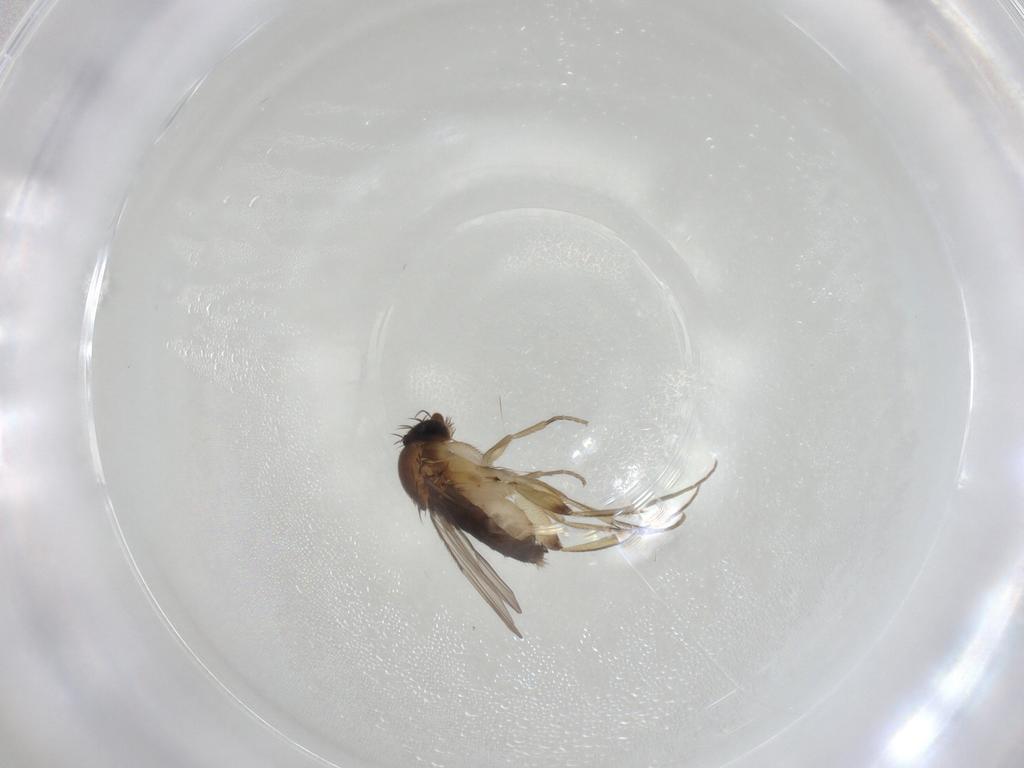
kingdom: Animalia
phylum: Arthropoda
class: Insecta
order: Diptera
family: Phoridae
